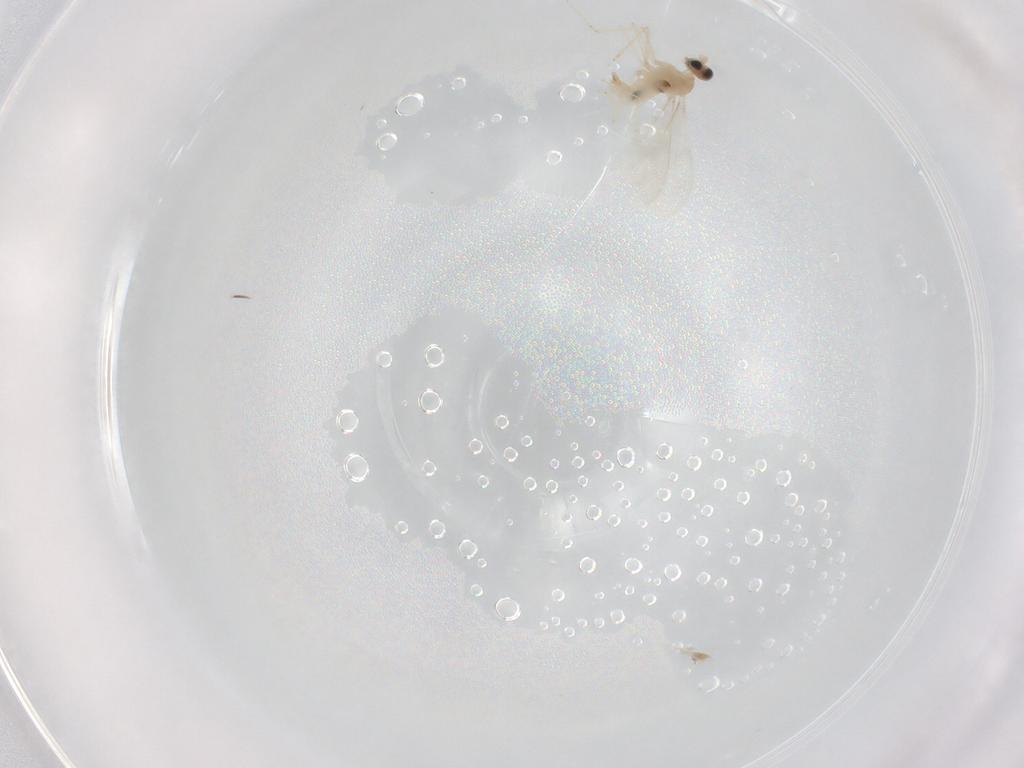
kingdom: Animalia
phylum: Arthropoda
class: Insecta
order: Diptera
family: Cecidomyiidae
